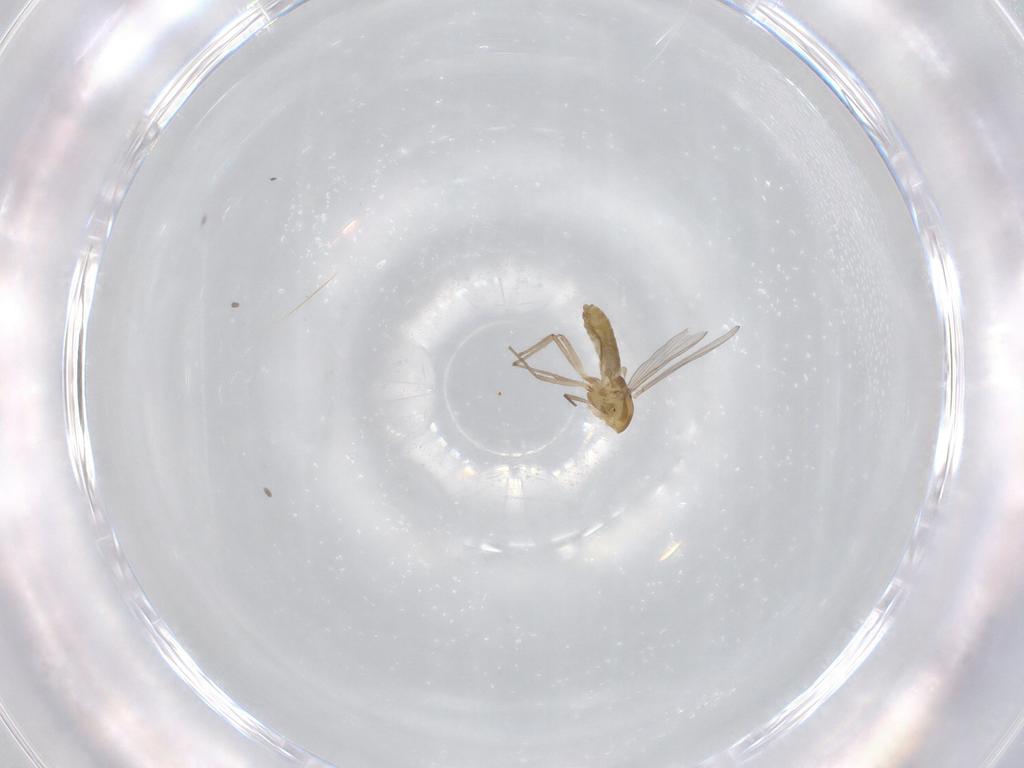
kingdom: Animalia
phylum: Arthropoda
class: Insecta
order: Diptera
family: Chironomidae
